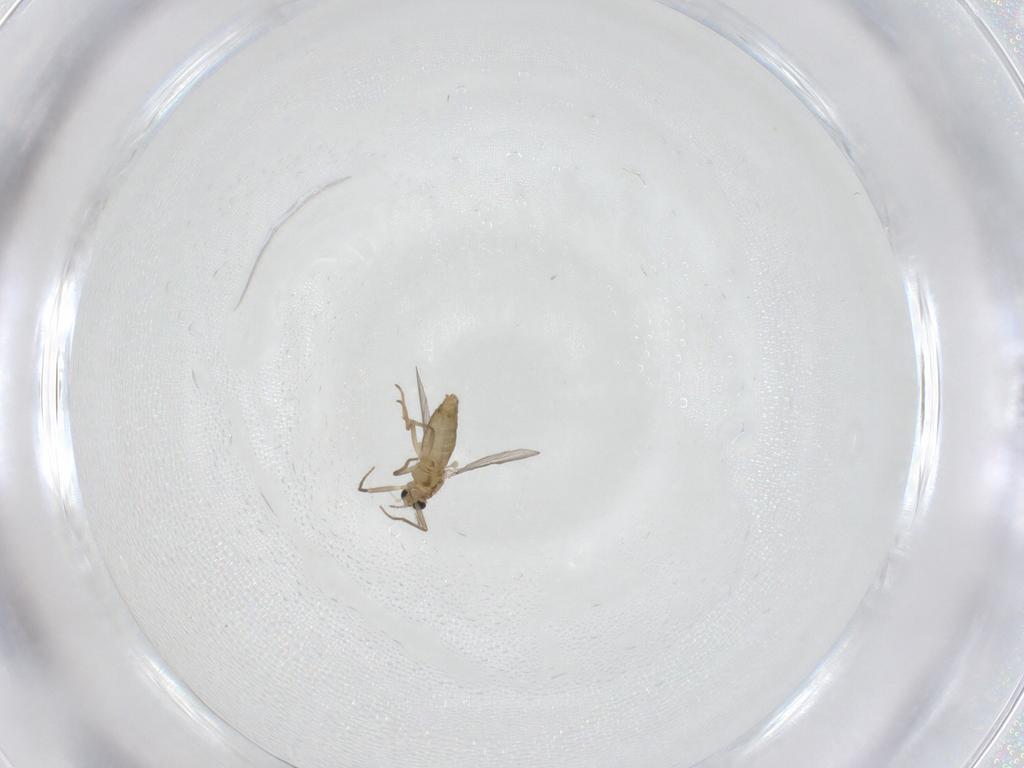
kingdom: Animalia
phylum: Arthropoda
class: Insecta
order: Diptera
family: Chironomidae
